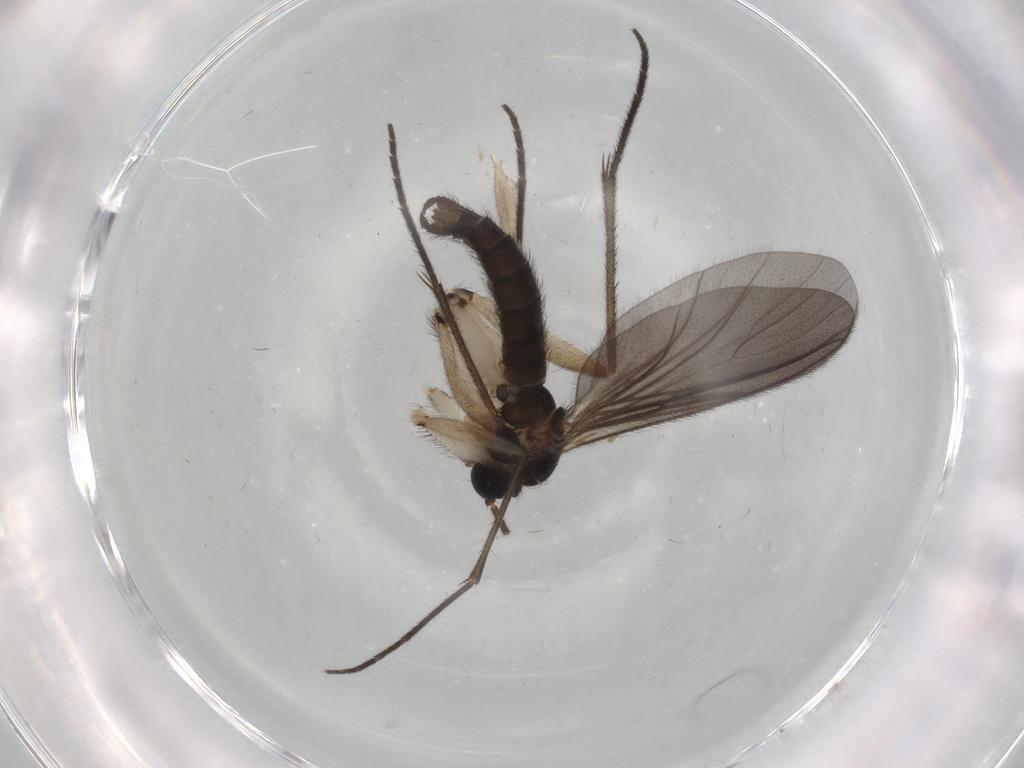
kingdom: Animalia
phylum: Arthropoda
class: Insecta
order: Diptera
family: Sciaridae
